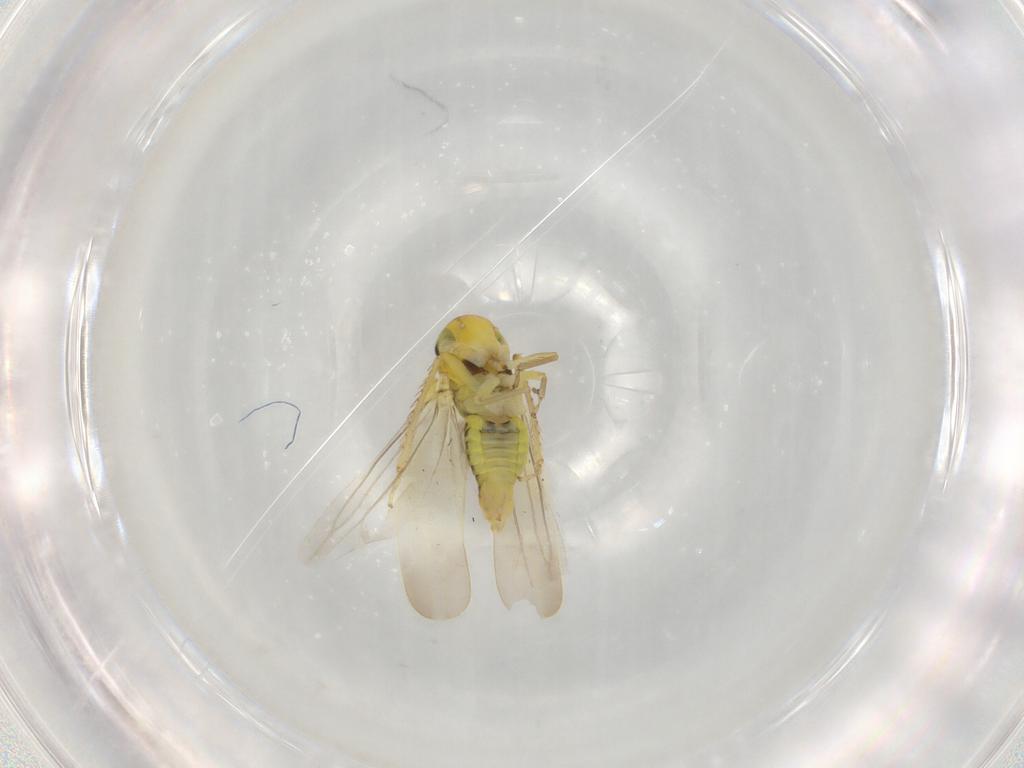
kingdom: Animalia
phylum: Arthropoda
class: Insecta
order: Hemiptera
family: Cicadellidae
